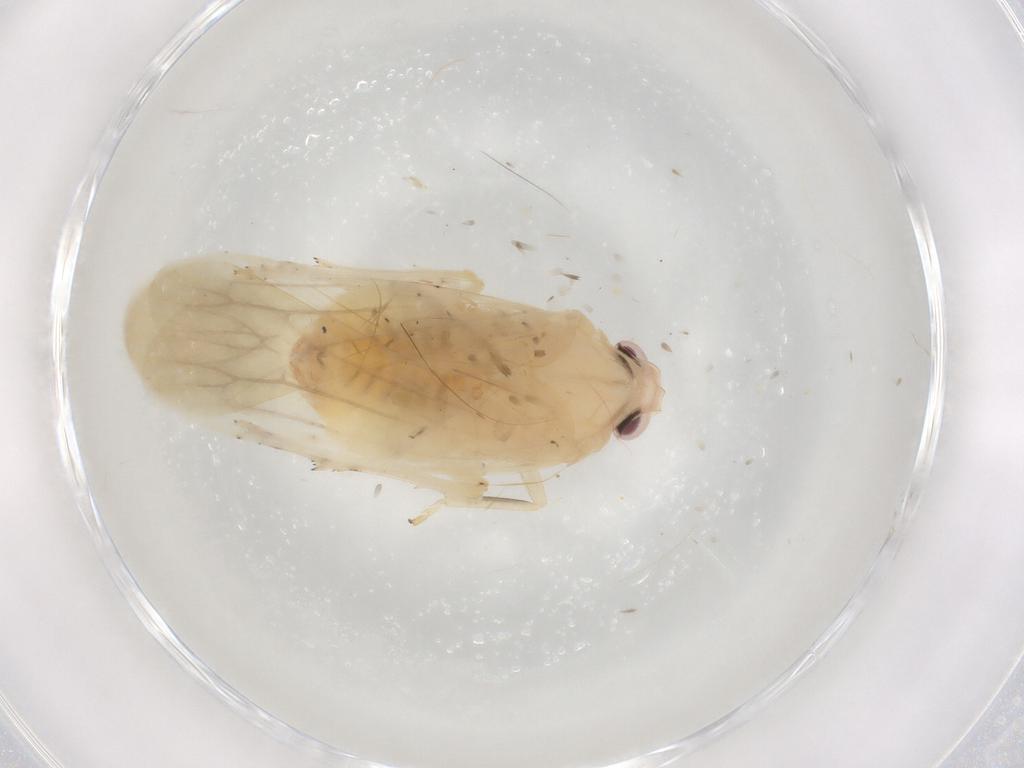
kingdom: Animalia
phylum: Arthropoda
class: Insecta
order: Hemiptera
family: Achilidae
